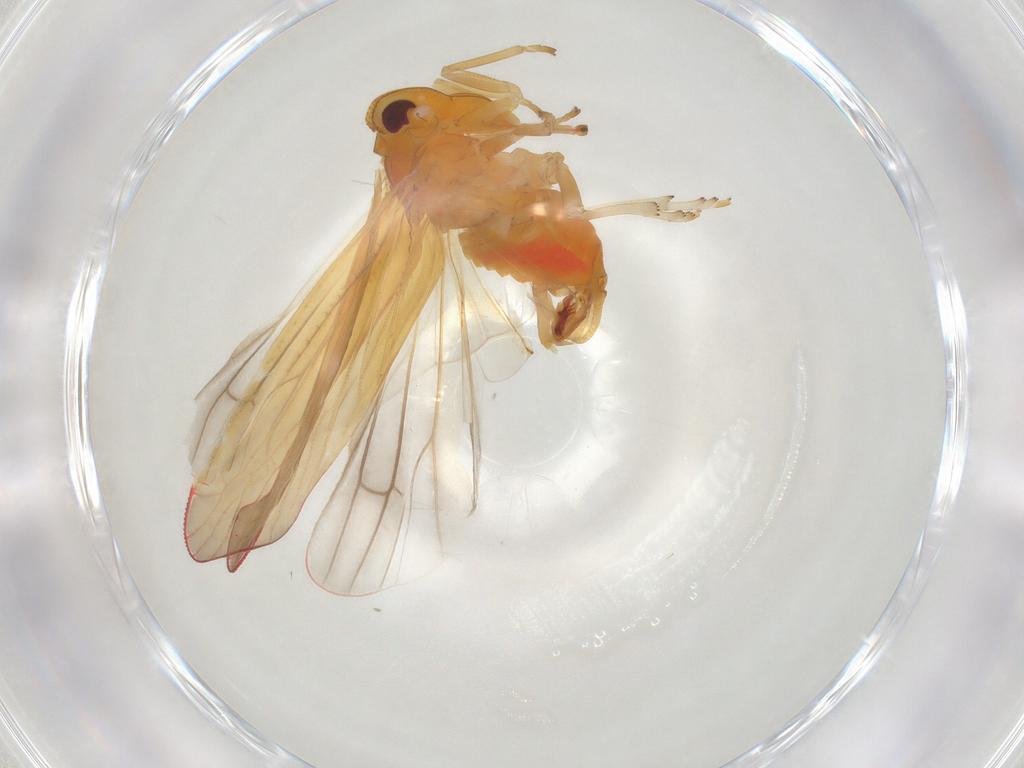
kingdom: Animalia
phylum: Arthropoda
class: Insecta
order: Hemiptera
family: Derbidae
